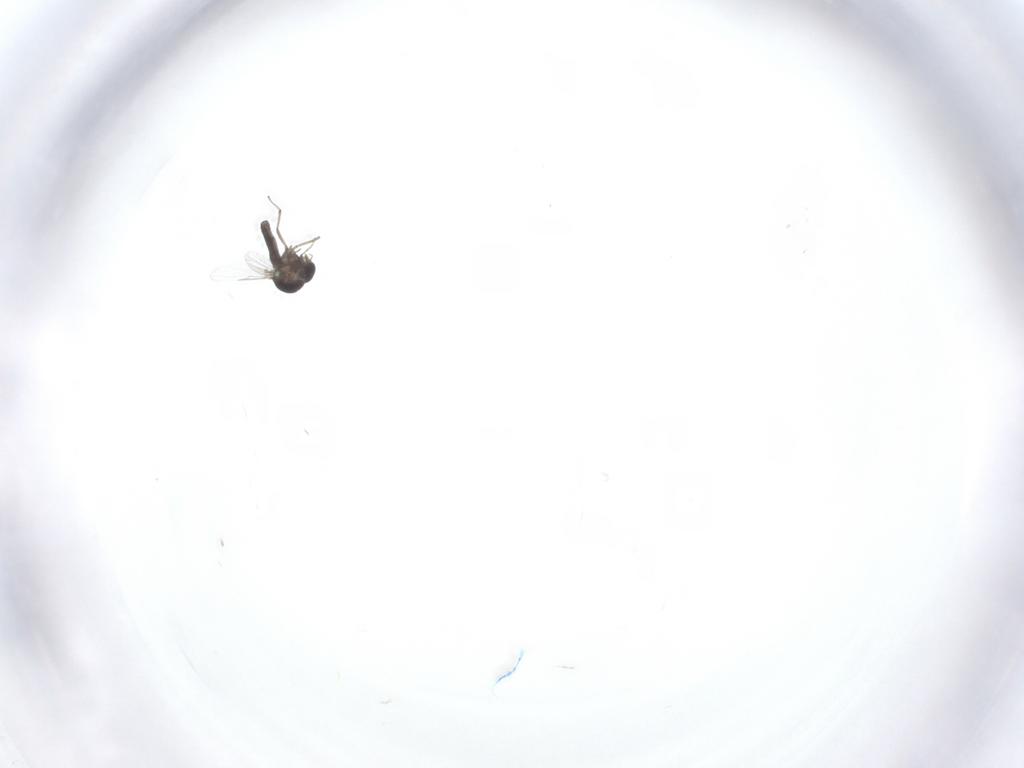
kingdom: Animalia
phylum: Arthropoda
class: Insecta
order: Diptera
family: Ceratopogonidae
